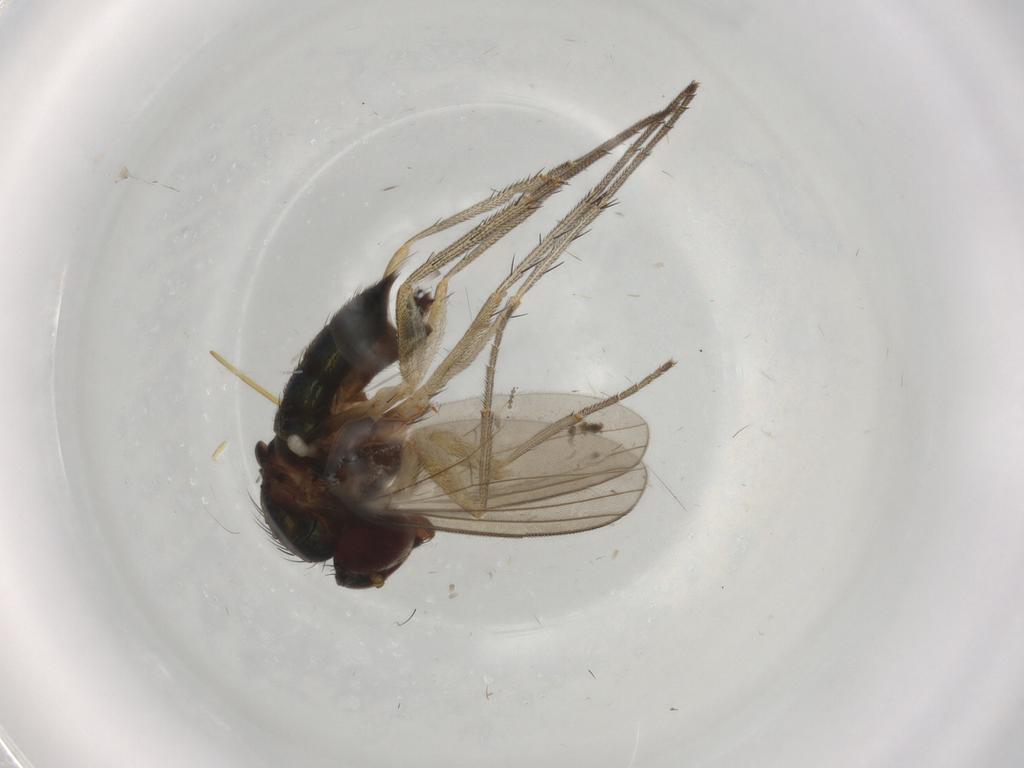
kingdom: Animalia
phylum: Arthropoda
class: Insecta
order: Diptera
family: Dolichopodidae
